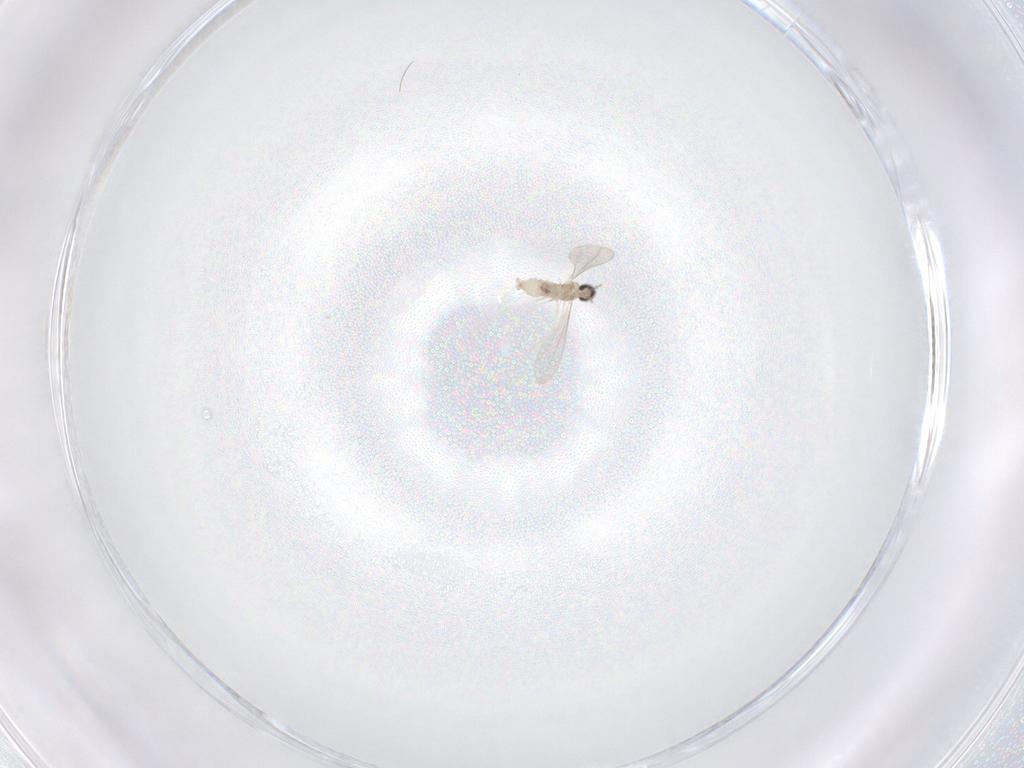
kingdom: Animalia
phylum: Arthropoda
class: Insecta
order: Diptera
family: Cecidomyiidae
